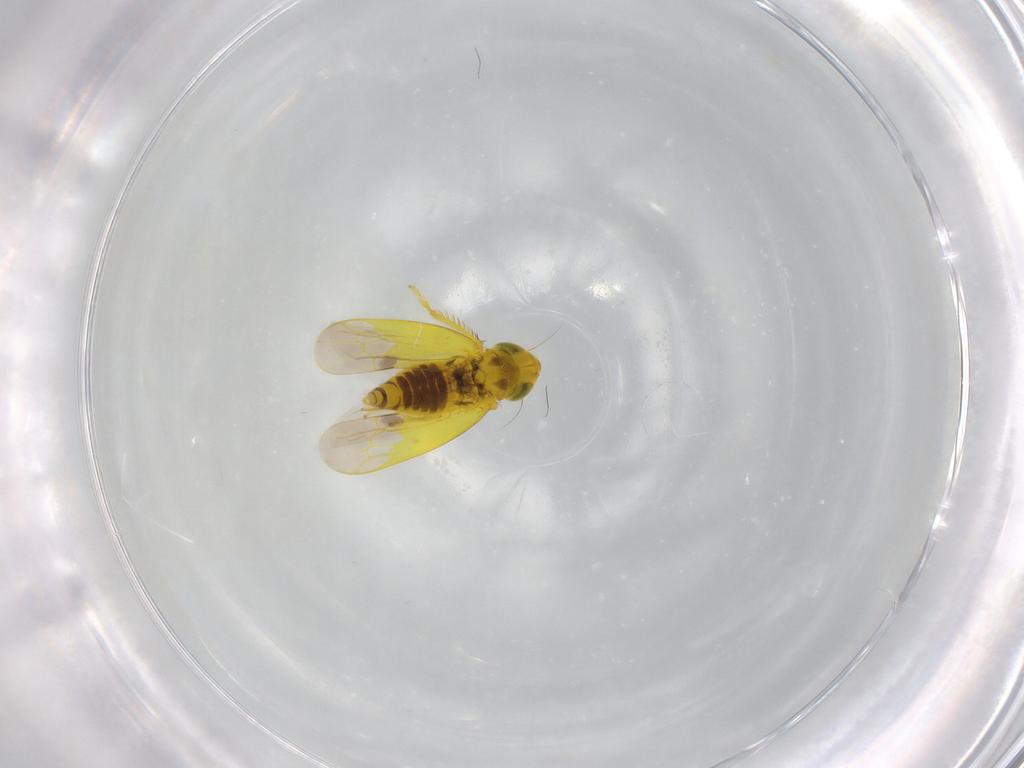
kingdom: Animalia
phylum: Arthropoda
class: Insecta
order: Hemiptera
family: Cicadellidae
